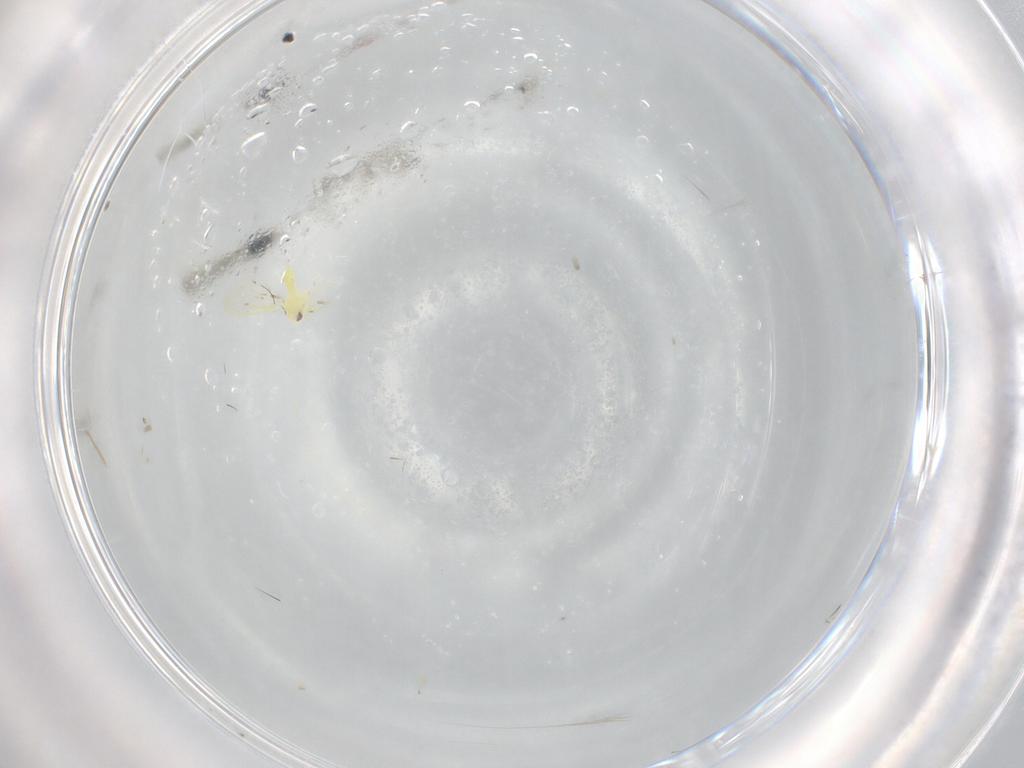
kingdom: Animalia
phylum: Arthropoda
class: Insecta
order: Hemiptera
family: Aleyrodidae
